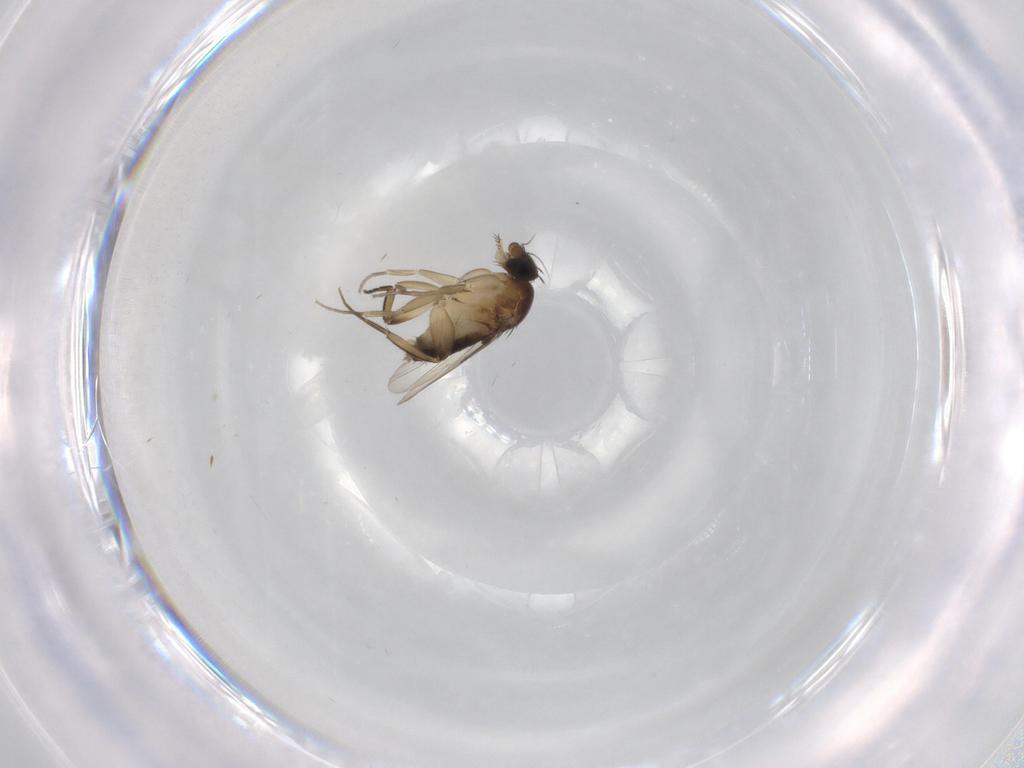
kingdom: Animalia
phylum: Arthropoda
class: Insecta
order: Diptera
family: Phoridae
